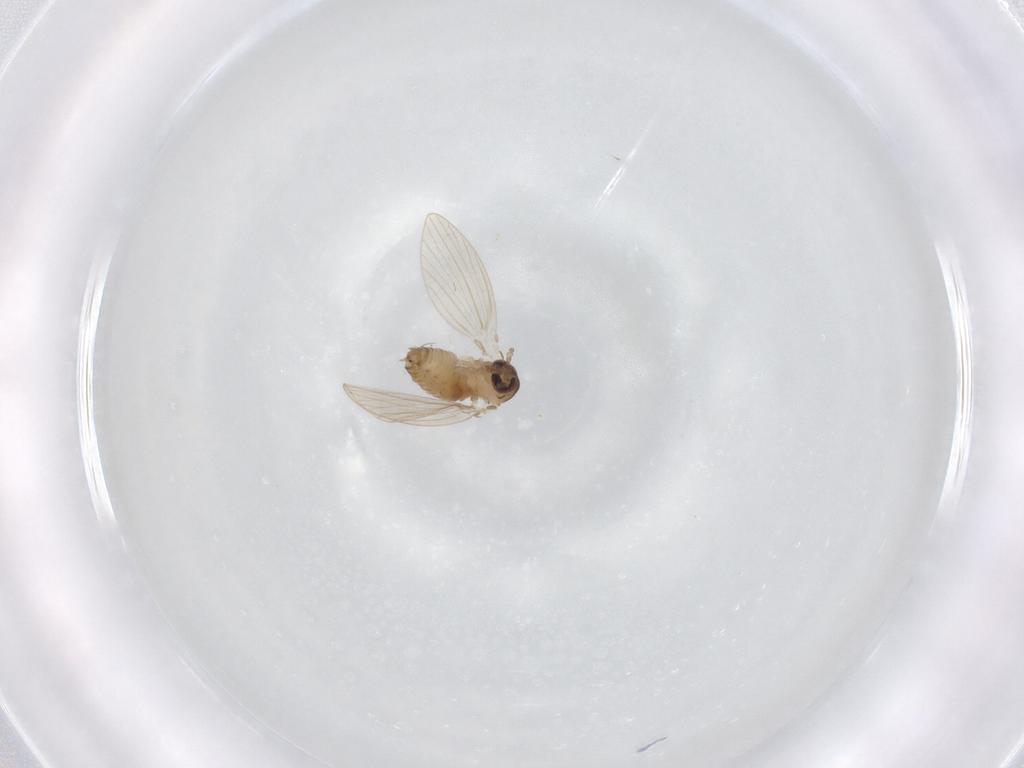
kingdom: Animalia
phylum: Arthropoda
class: Insecta
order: Diptera
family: Psychodidae
